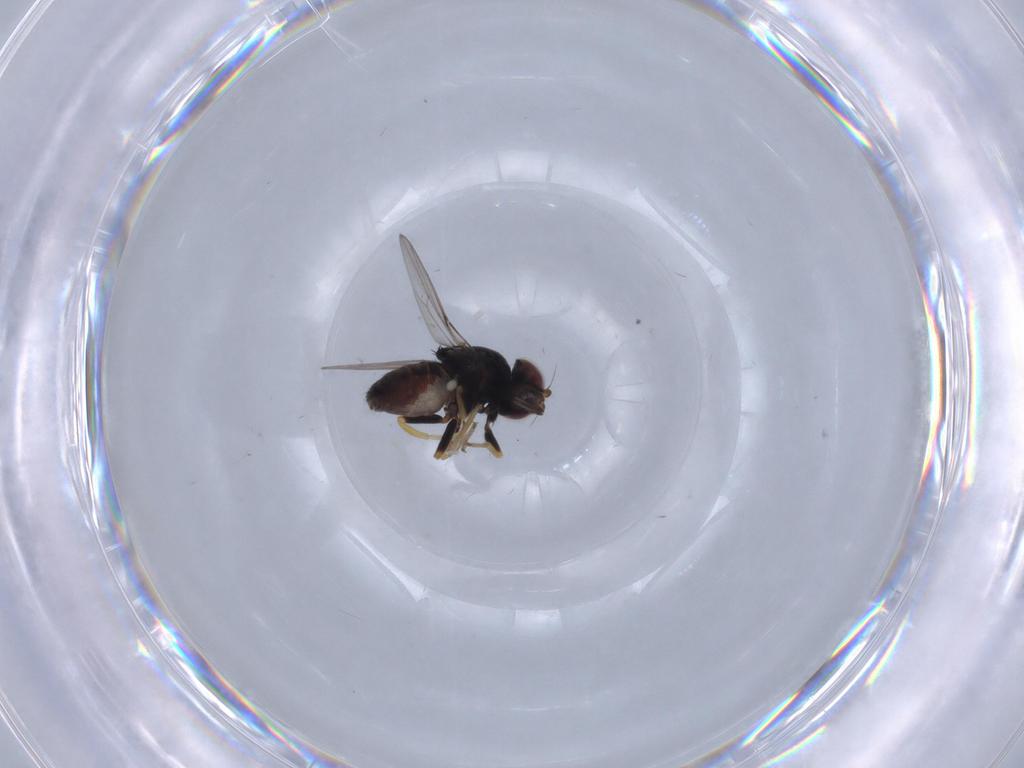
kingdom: Animalia
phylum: Arthropoda
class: Insecta
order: Diptera
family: Chloropidae
